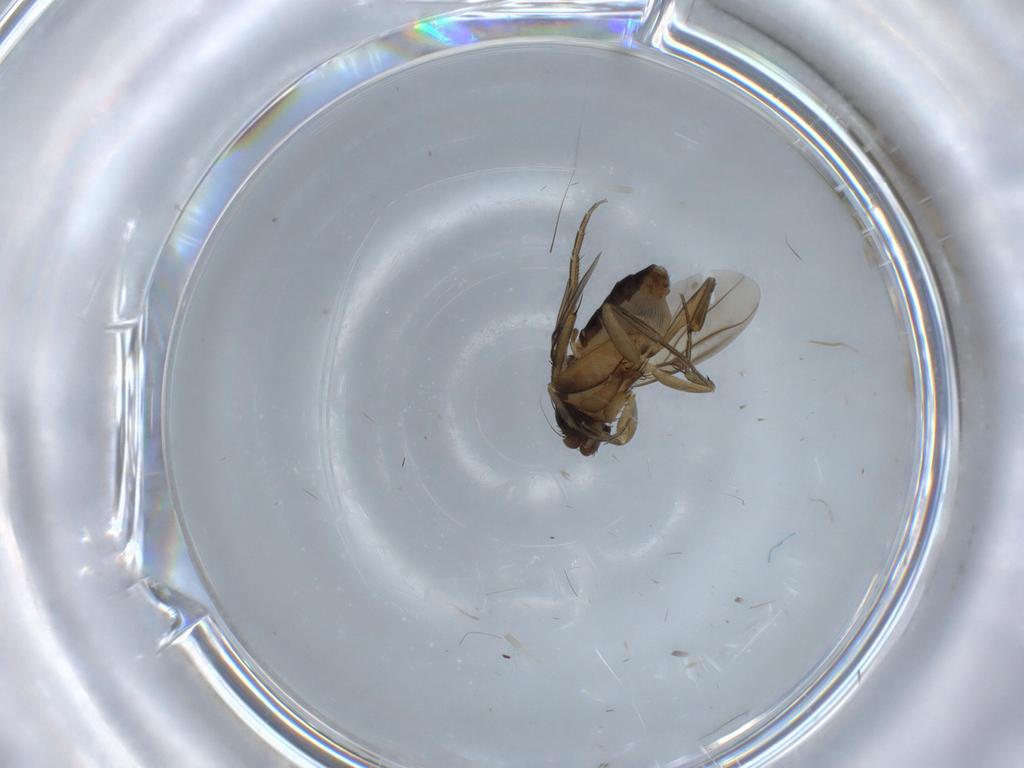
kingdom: Animalia
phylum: Arthropoda
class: Insecta
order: Diptera
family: Phoridae
